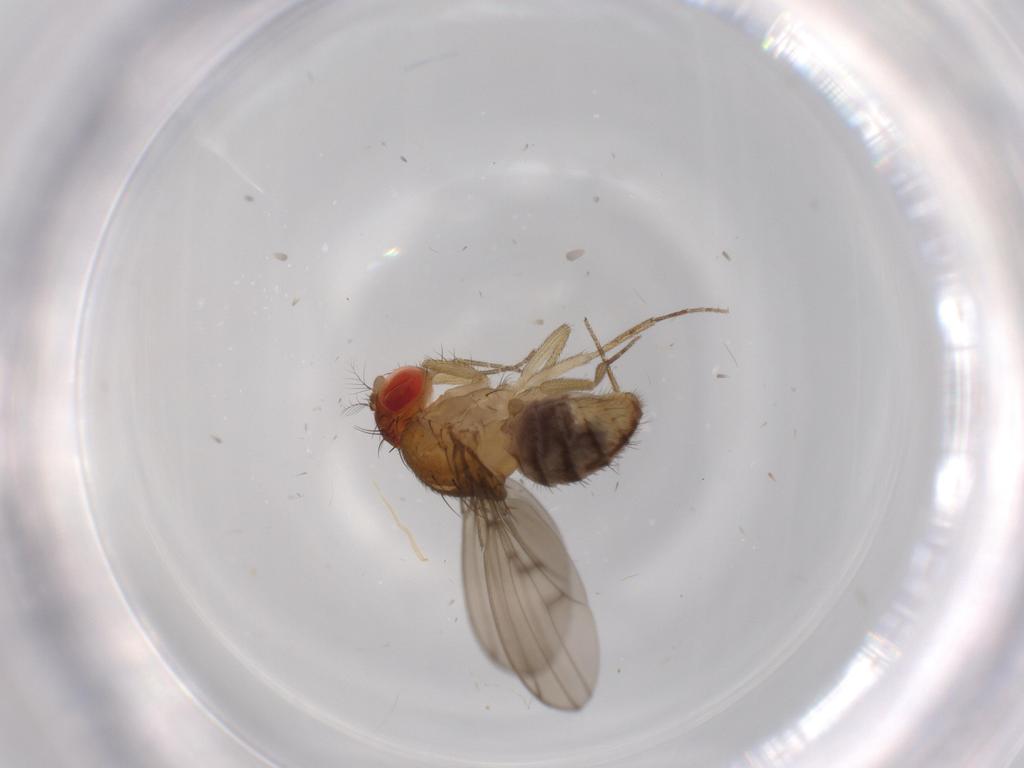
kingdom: Animalia
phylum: Arthropoda
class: Insecta
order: Diptera
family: Drosophilidae
